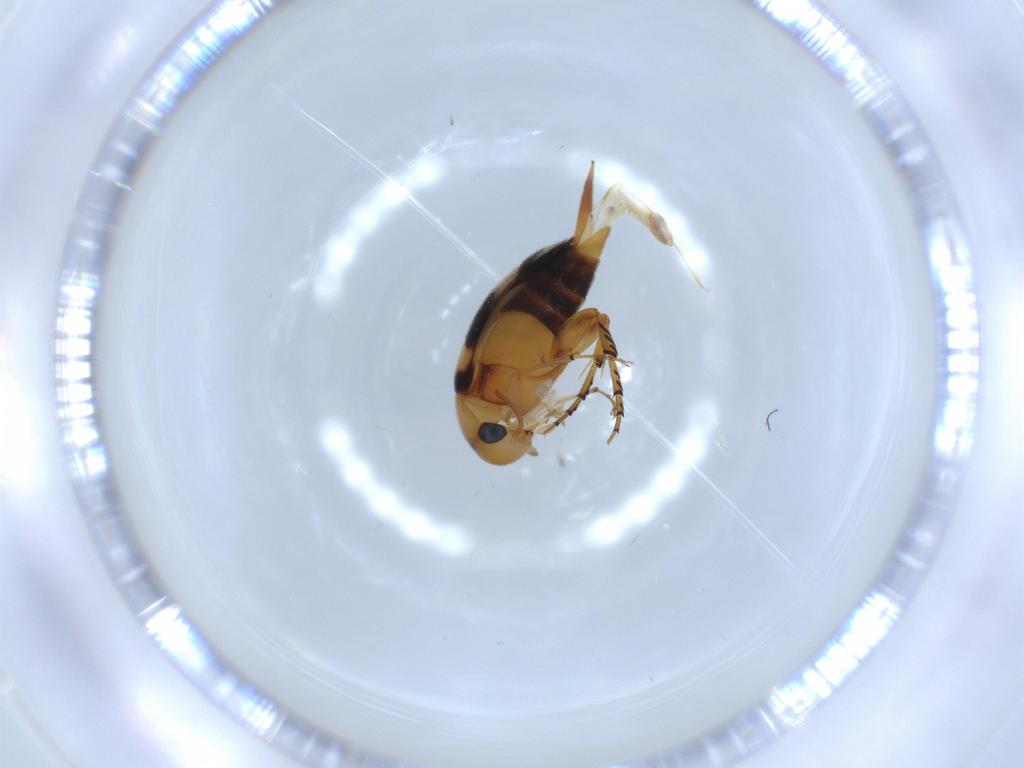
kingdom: Animalia
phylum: Arthropoda
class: Insecta
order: Coleoptera
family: Mordellidae
